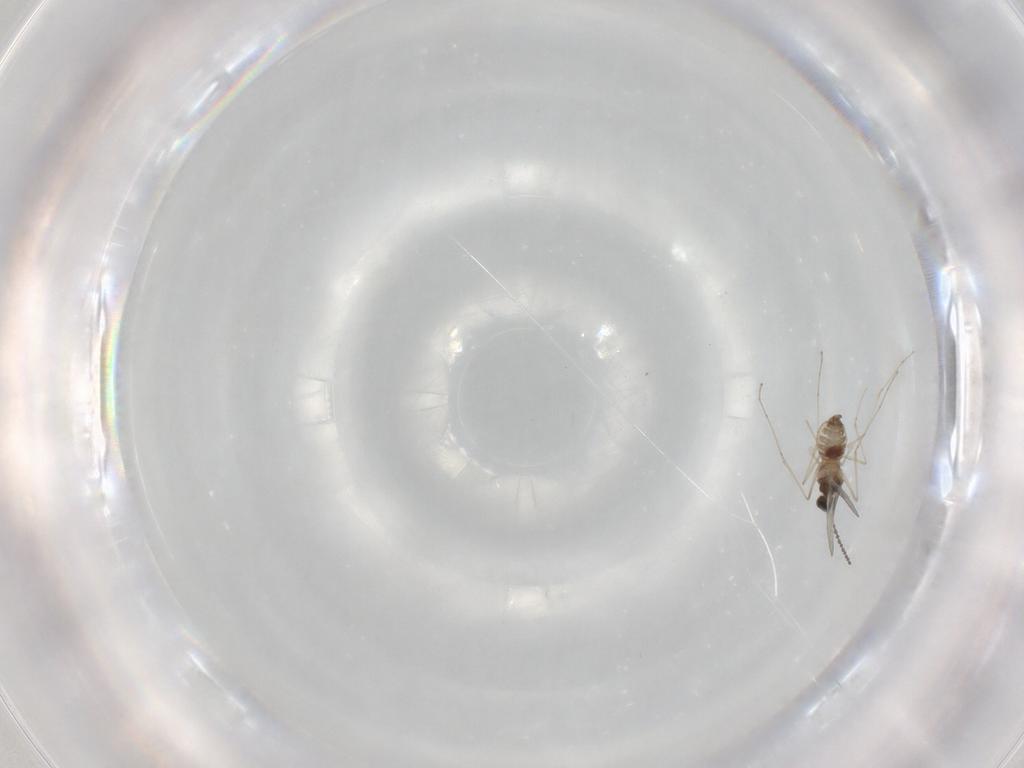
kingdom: Animalia
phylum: Arthropoda
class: Insecta
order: Diptera
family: Cecidomyiidae
